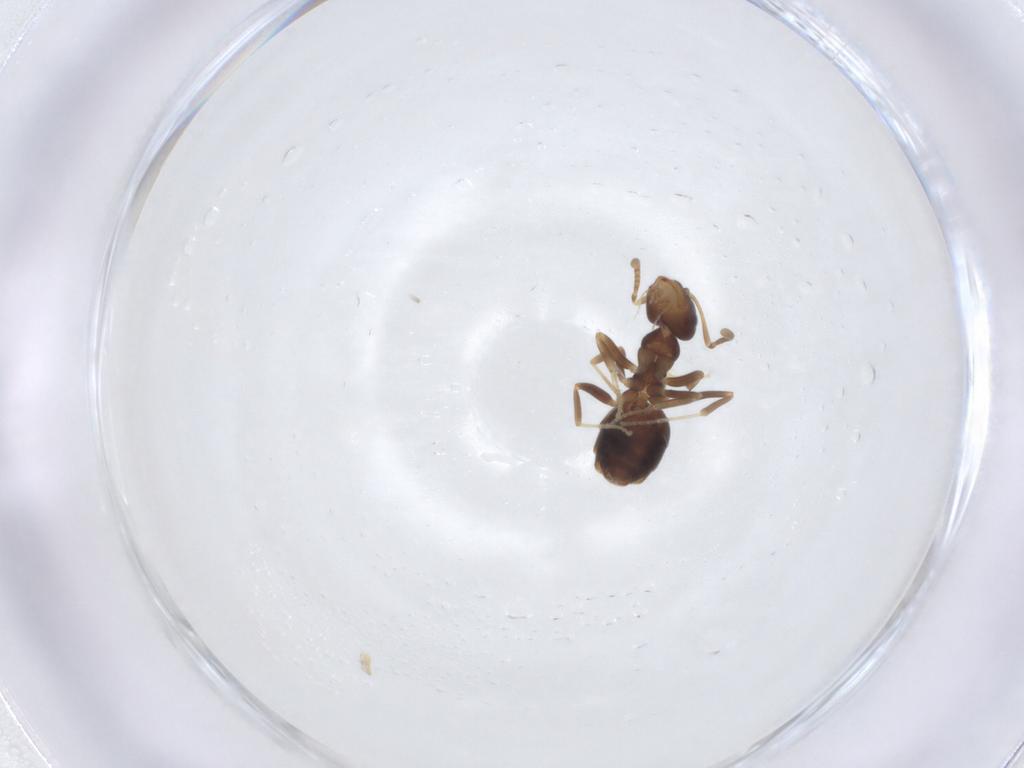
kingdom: Animalia
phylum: Arthropoda
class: Insecta
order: Hymenoptera
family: Formicidae
